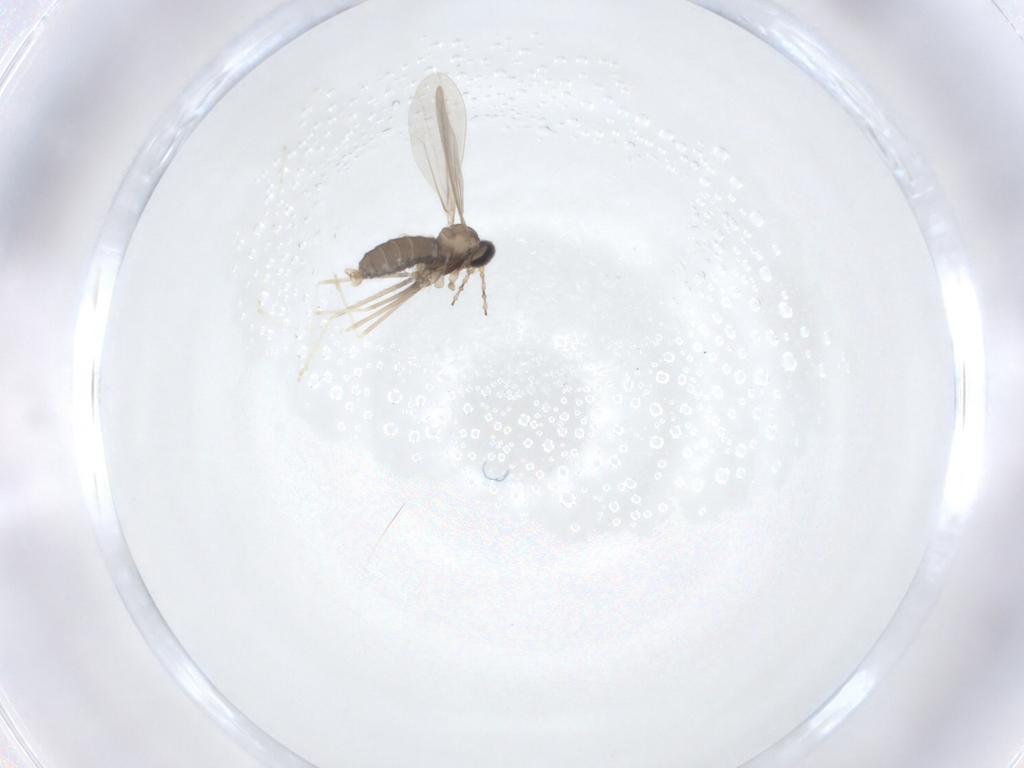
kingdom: Animalia
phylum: Arthropoda
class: Insecta
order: Diptera
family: Cecidomyiidae
